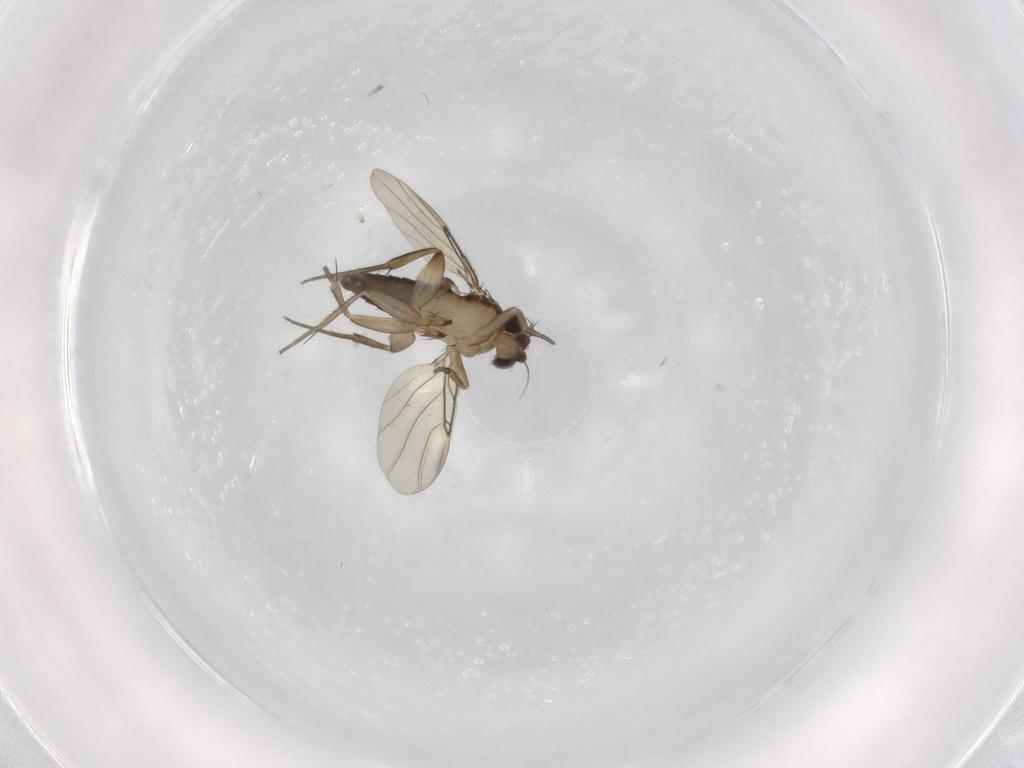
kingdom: Animalia
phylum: Arthropoda
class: Insecta
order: Diptera
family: Phoridae
